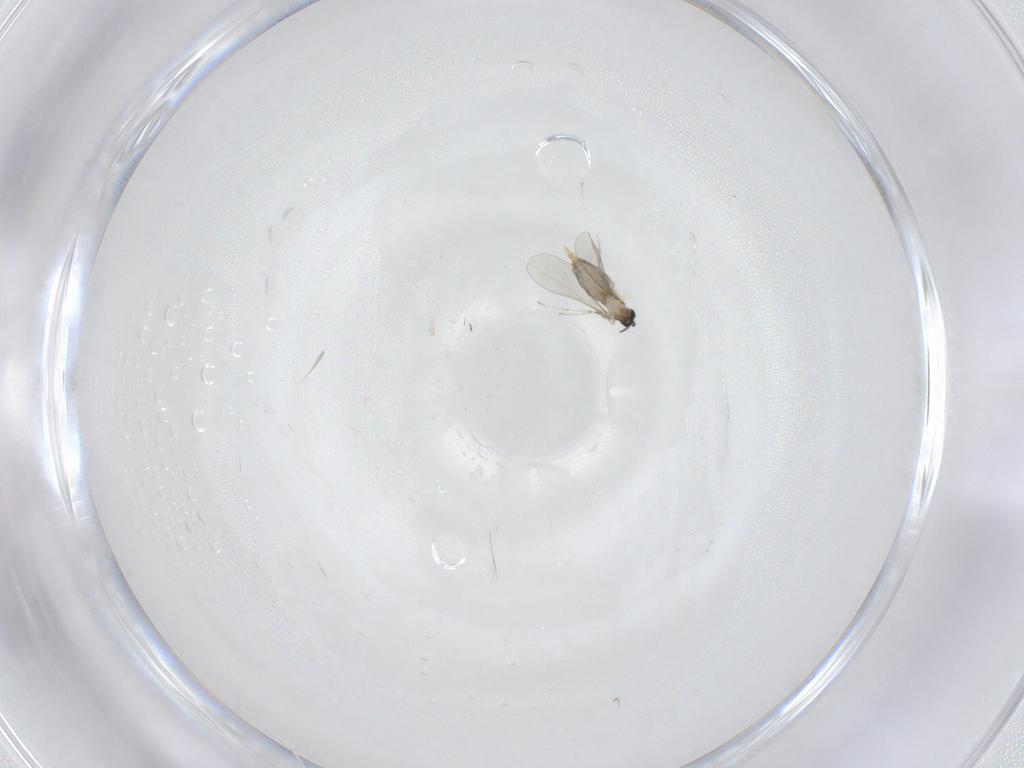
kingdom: Animalia
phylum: Arthropoda
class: Insecta
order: Diptera
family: Cecidomyiidae
